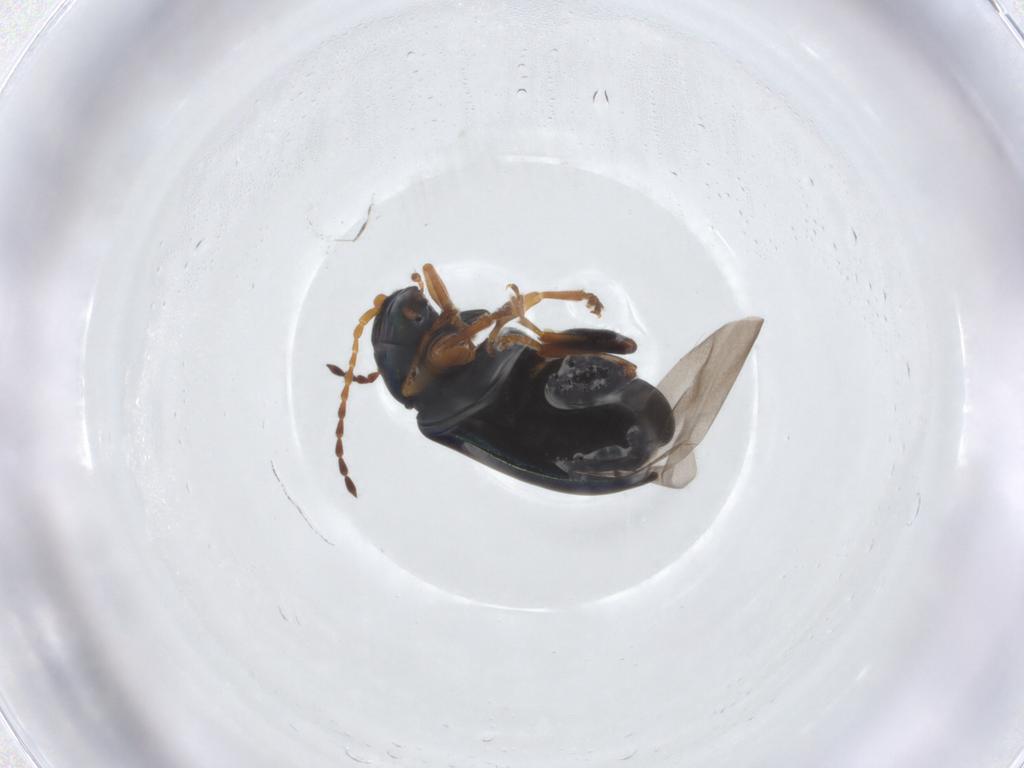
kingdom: Animalia
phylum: Arthropoda
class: Insecta
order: Coleoptera
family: Chrysomelidae
